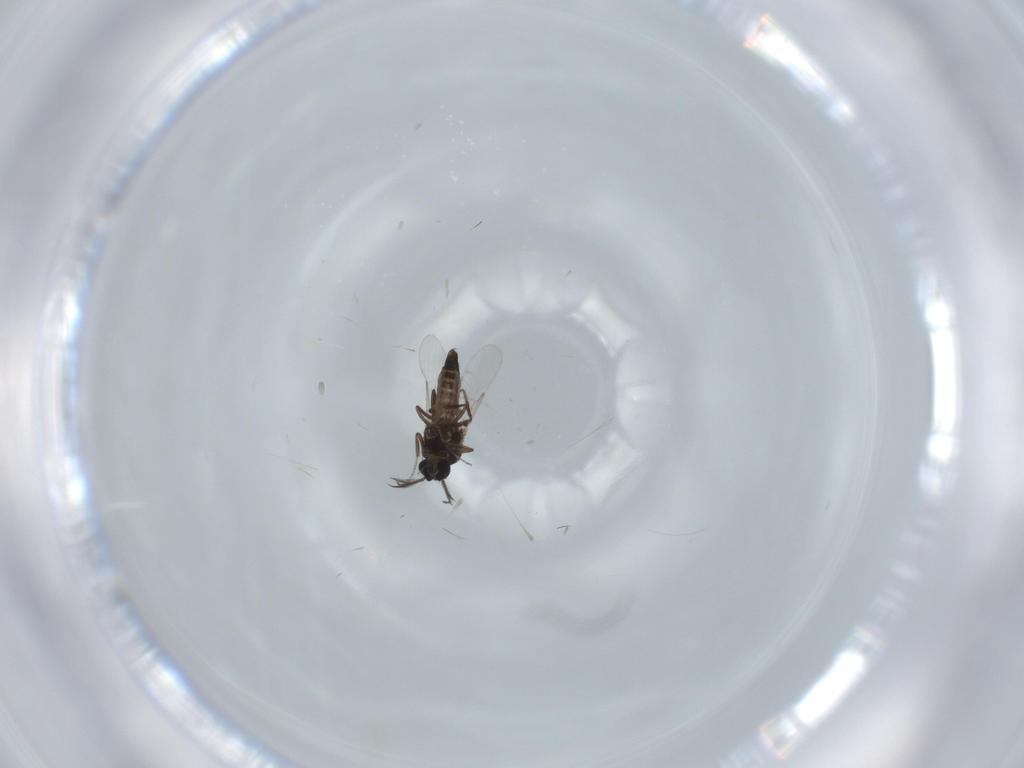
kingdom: Animalia
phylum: Arthropoda
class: Insecta
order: Diptera
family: Ceratopogonidae
